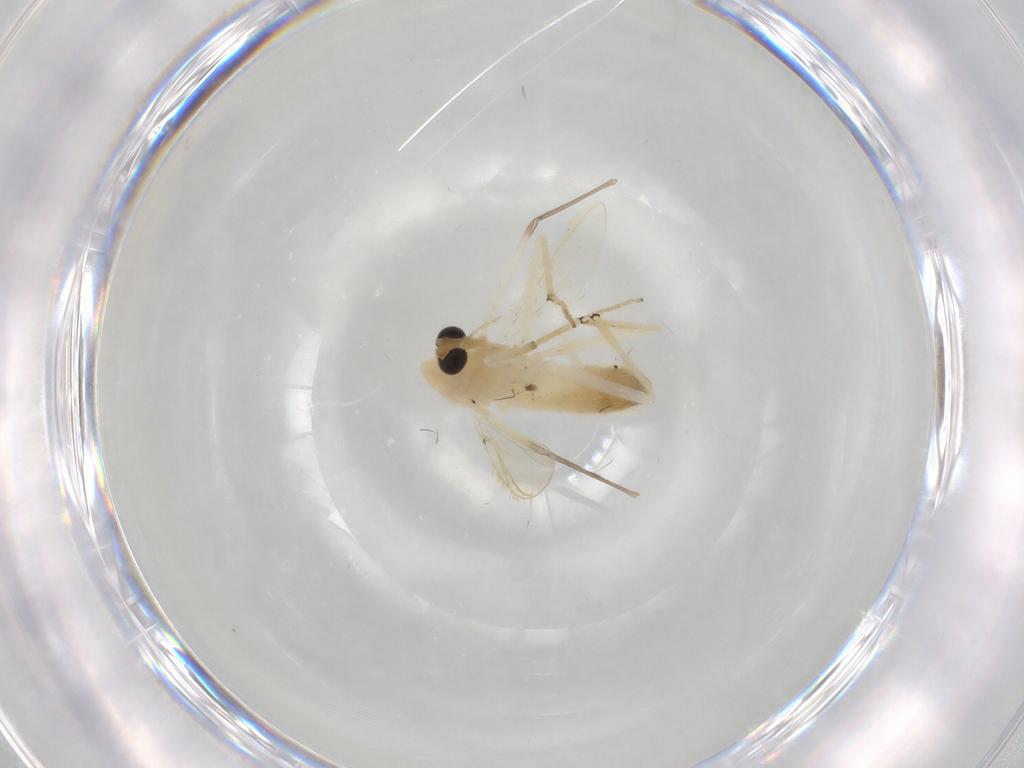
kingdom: Animalia
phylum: Arthropoda
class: Insecta
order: Diptera
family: Chironomidae
